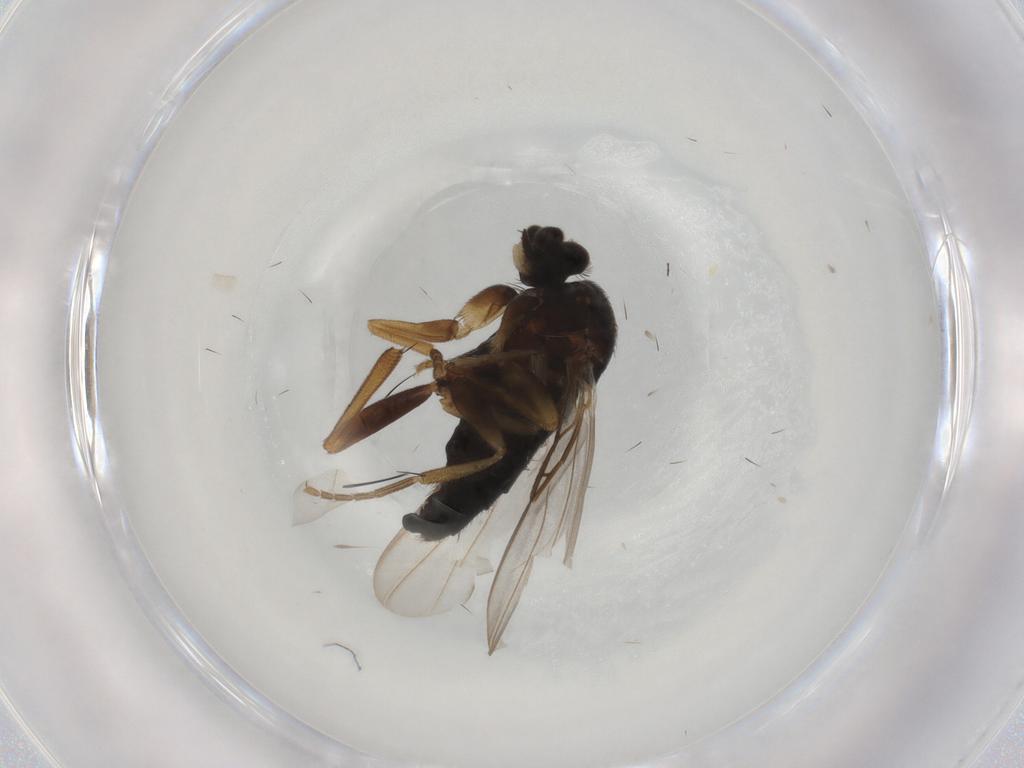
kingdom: Animalia
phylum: Arthropoda
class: Insecta
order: Diptera
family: Phoridae
